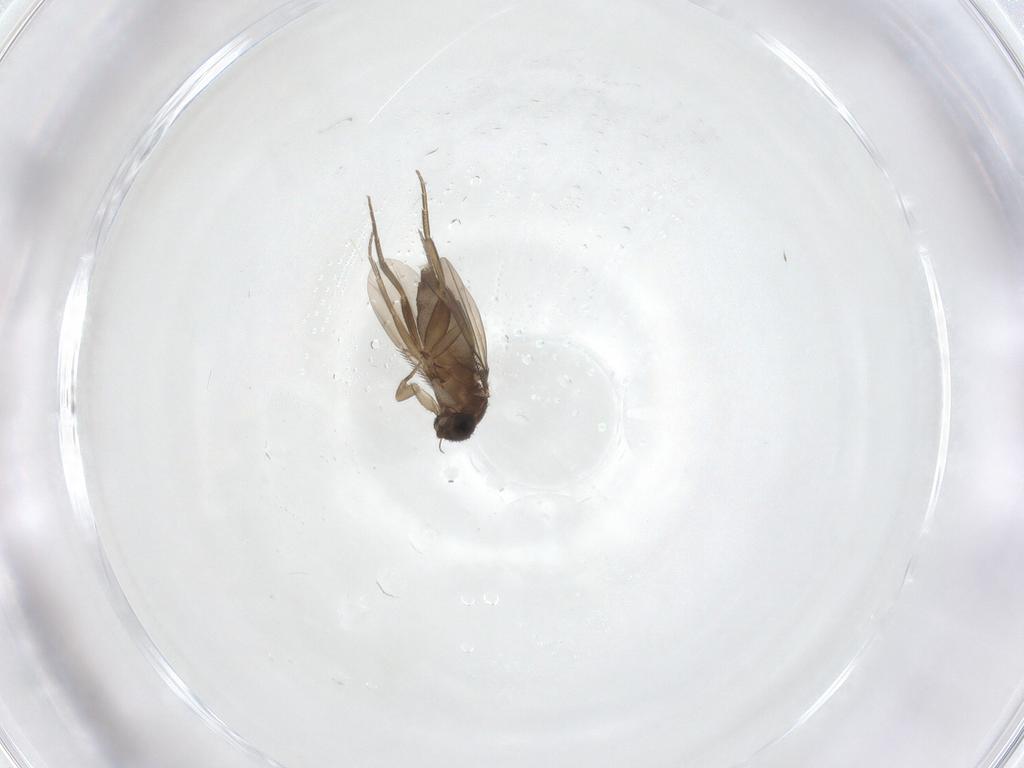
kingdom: Animalia
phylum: Arthropoda
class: Insecta
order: Diptera
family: Phoridae
